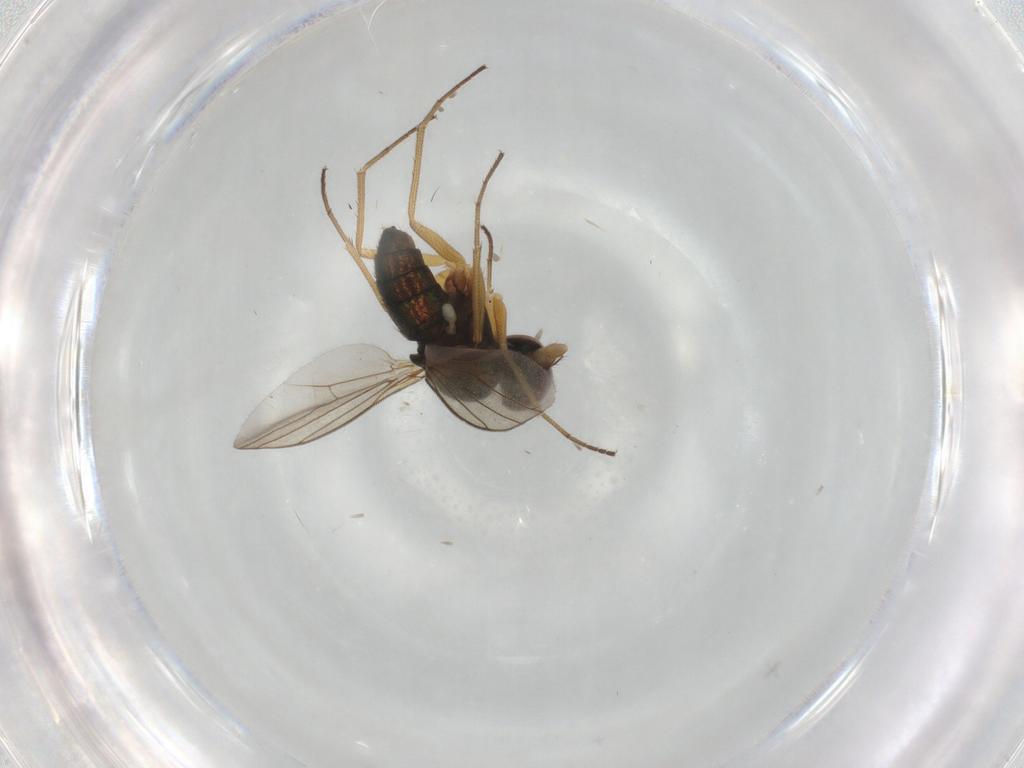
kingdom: Animalia
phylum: Arthropoda
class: Insecta
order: Diptera
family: Dolichopodidae
